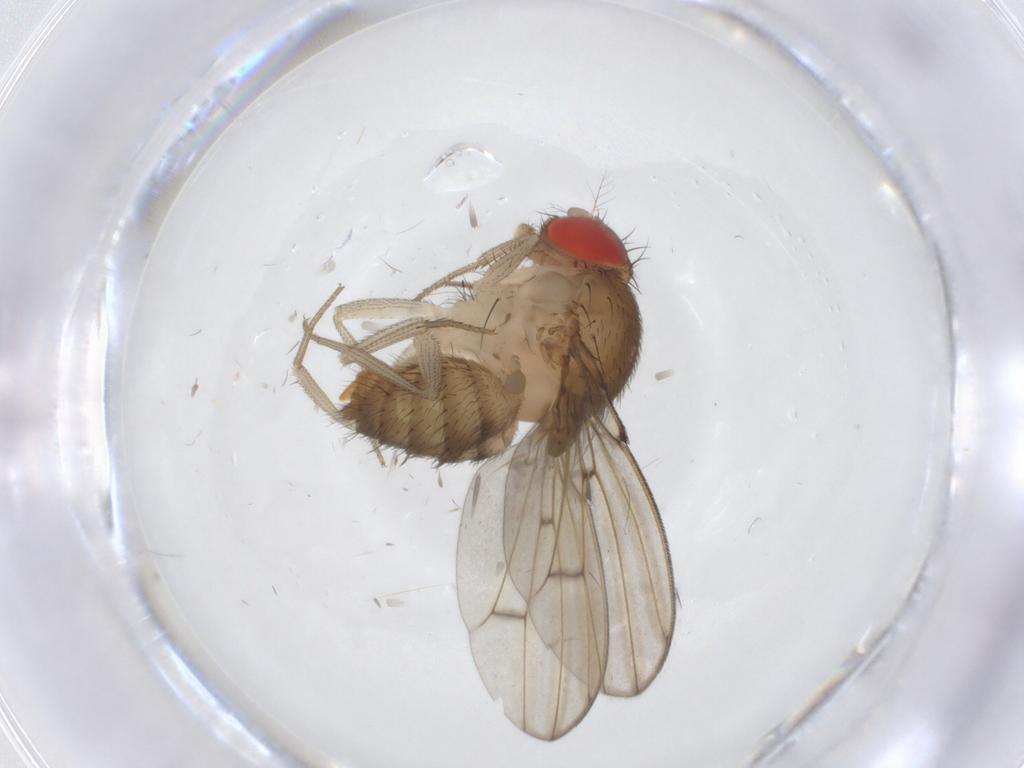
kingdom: Animalia
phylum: Arthropoda
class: Insecta
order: Diptera
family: Drosophilidae
